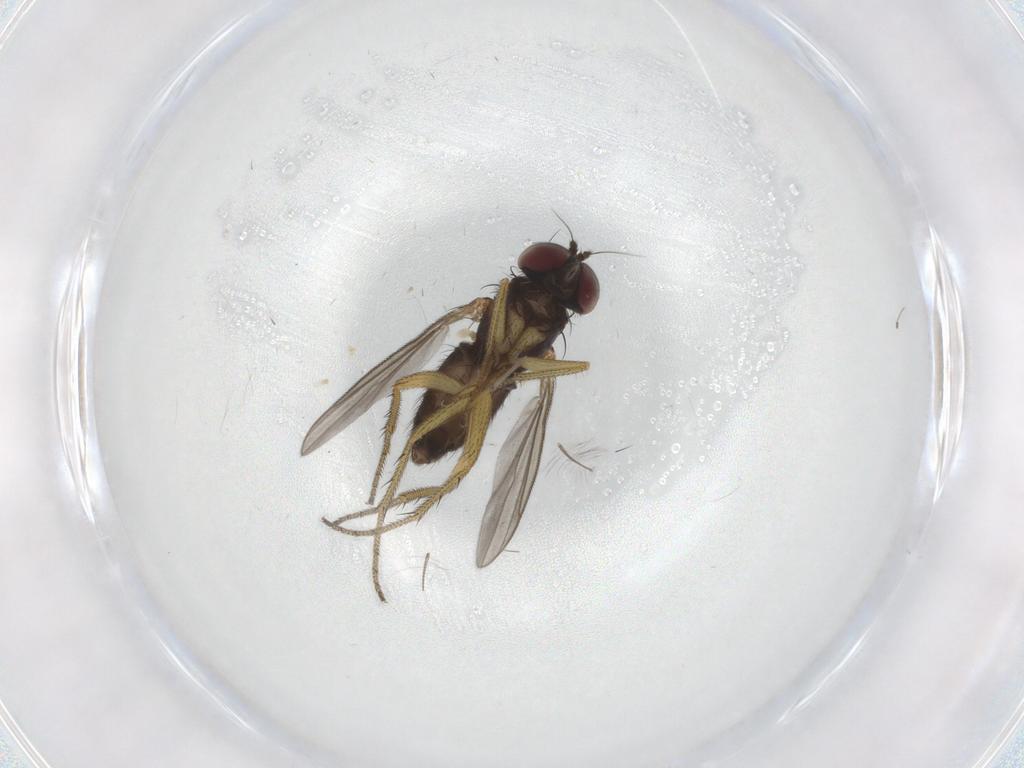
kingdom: Animalia
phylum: Arthropoda
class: Insecta
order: Diptera
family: Dolichopodidae
